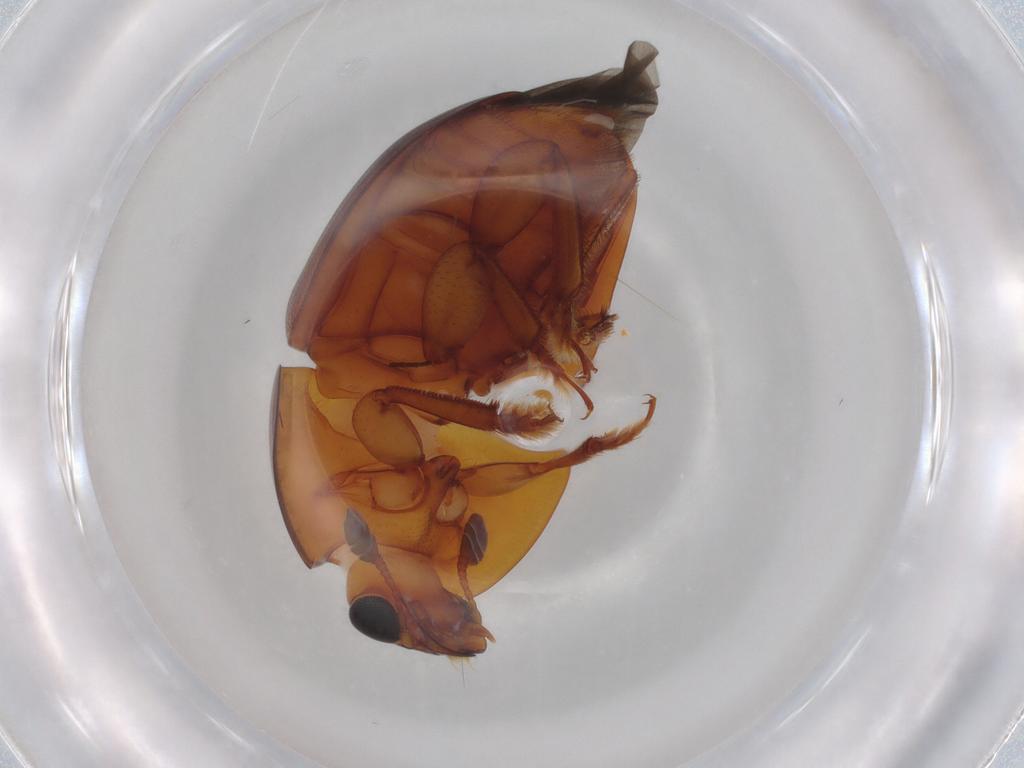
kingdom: Animalia
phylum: Arthropoda
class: Insecta
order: Coleoptera
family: Nitidulidae
